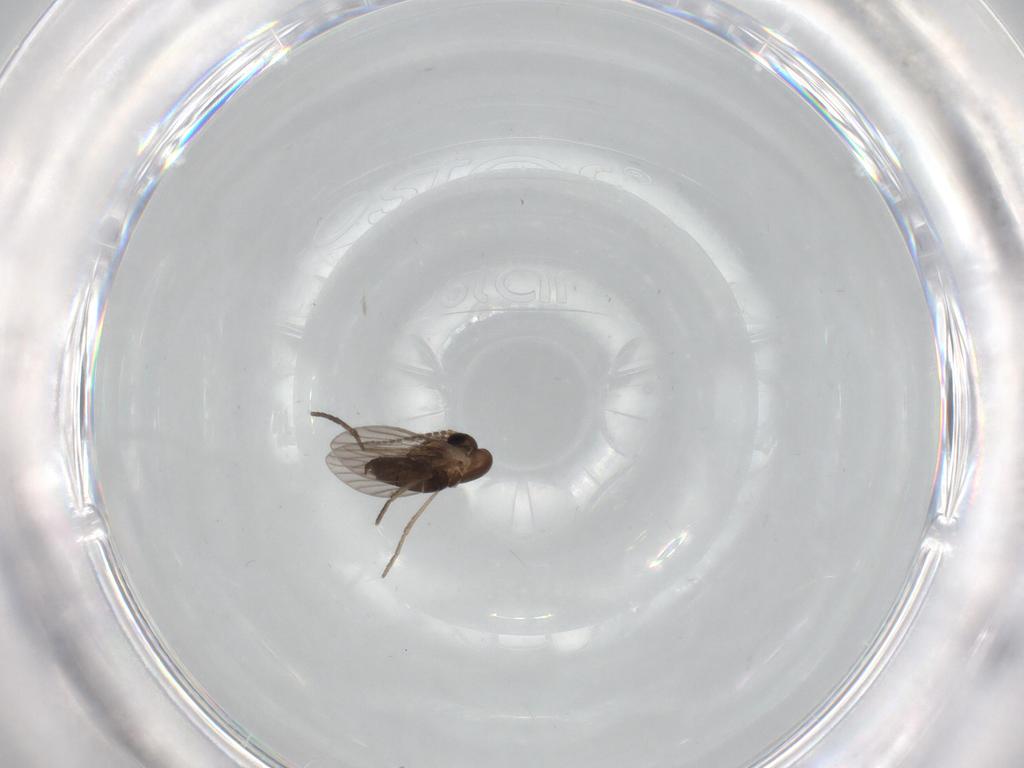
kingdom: Animalia
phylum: Arthropoda
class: Insecta
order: Diptera
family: Sciaridae
